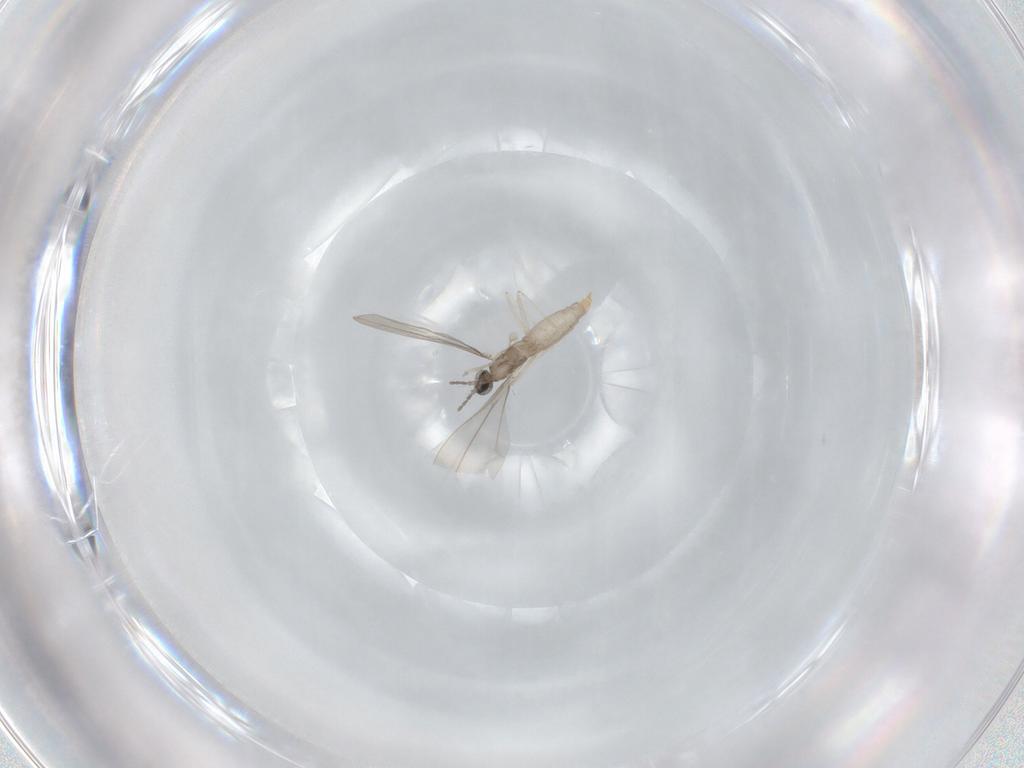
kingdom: Animalia
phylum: Arthropoda
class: Insecta
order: Diptera
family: Cecidomyiidae
